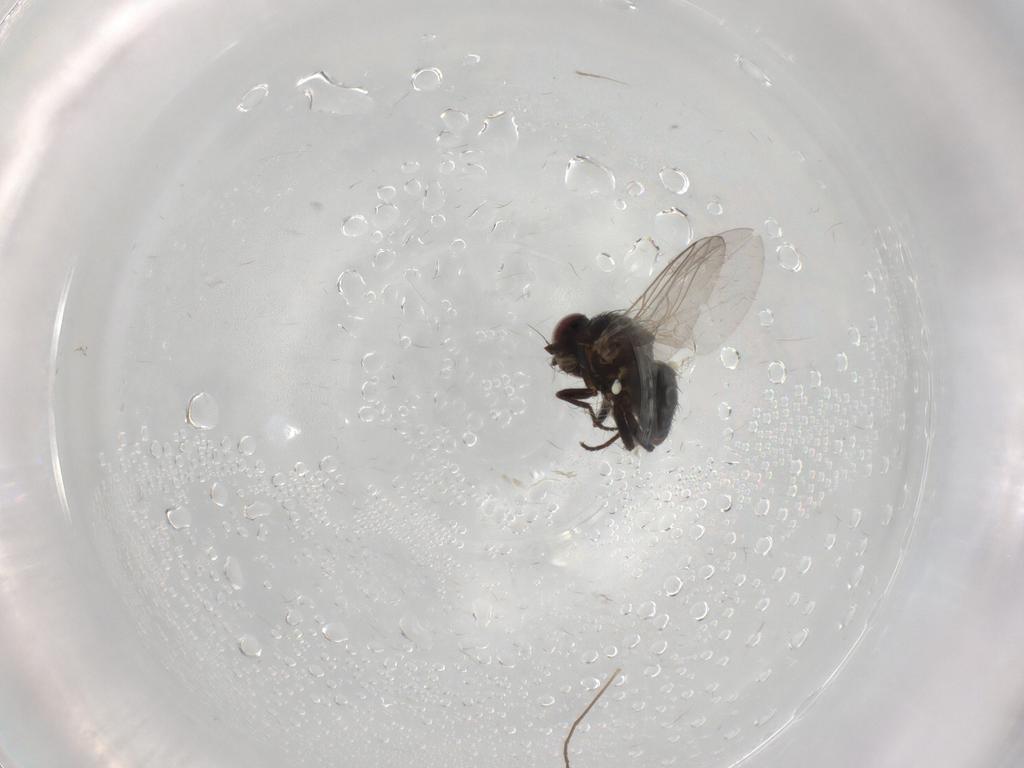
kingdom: Animalia
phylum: Arthropoda
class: Insecta
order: Diptera
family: Agromyzidae
